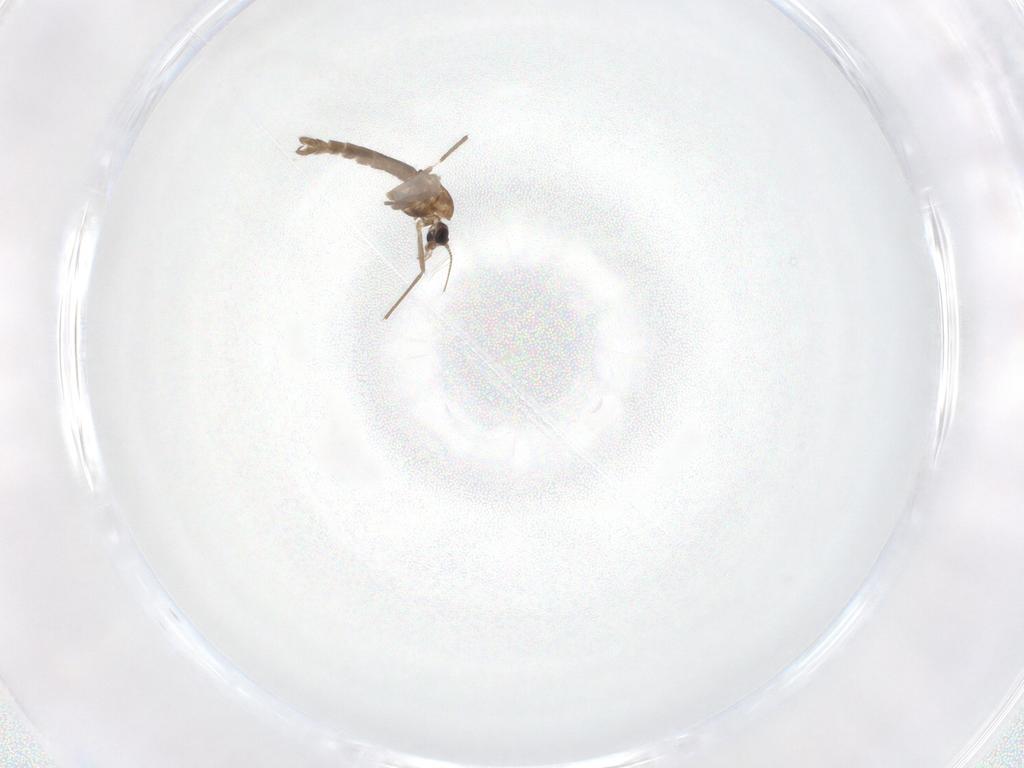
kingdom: Animalia
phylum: Arthropoda
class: Insecta
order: Diptera
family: Chironomidae
